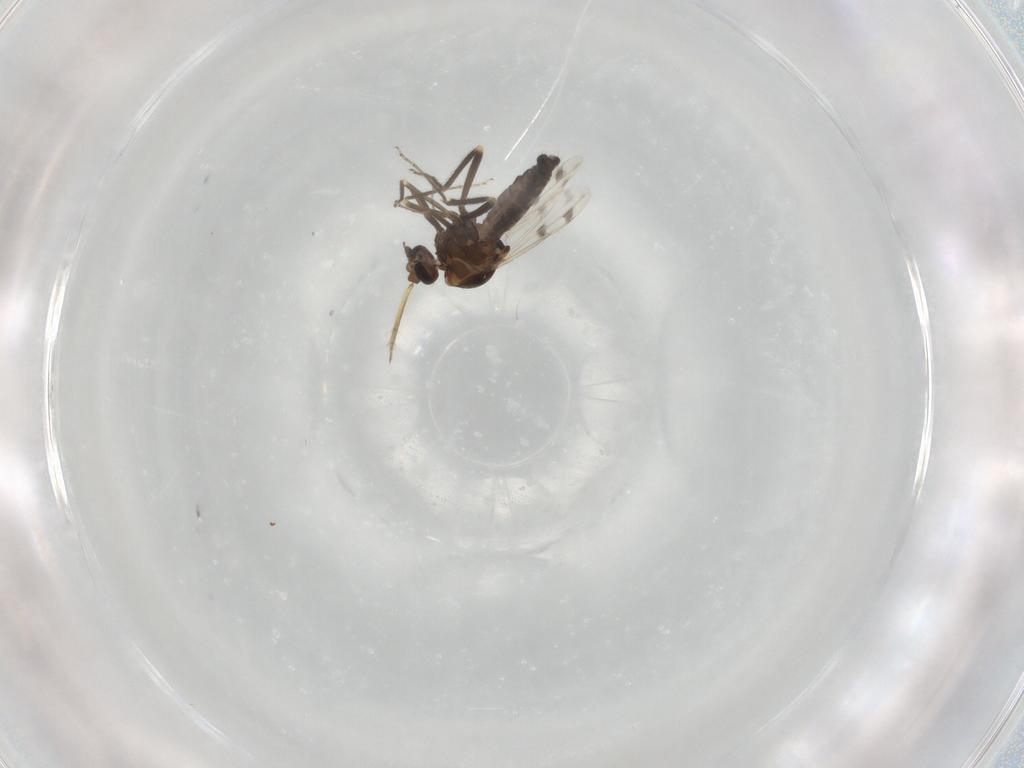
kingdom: Animalia
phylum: Arthropoda
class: Insecta
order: Diptera
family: Ceratopogonidae
